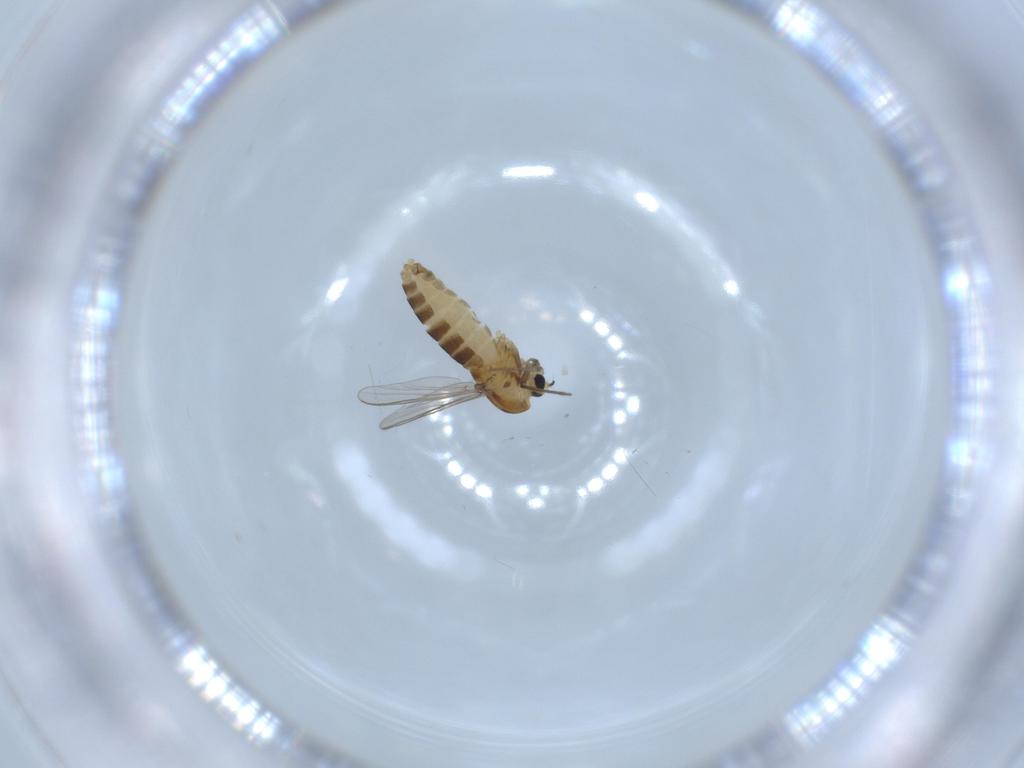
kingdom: Animalia
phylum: Arthropoda
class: Insecta
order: Diptera
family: Chironomidae
